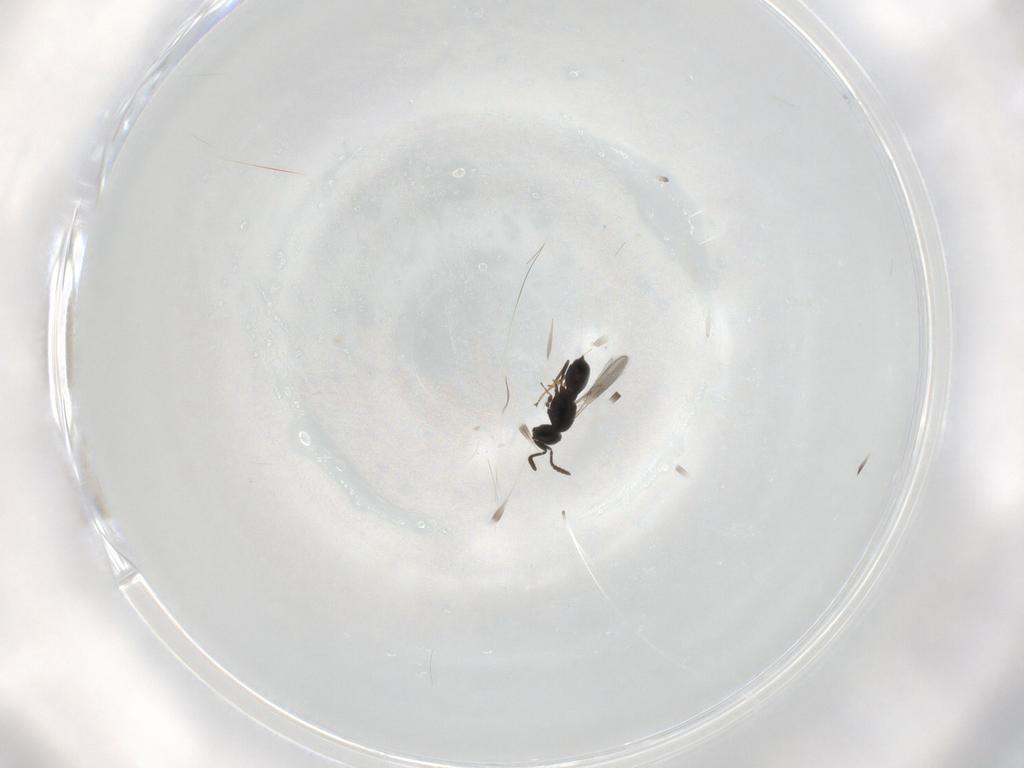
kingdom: Animalia
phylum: Arthropoda
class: Insecta
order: Hymenoptera
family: Scelionidae
